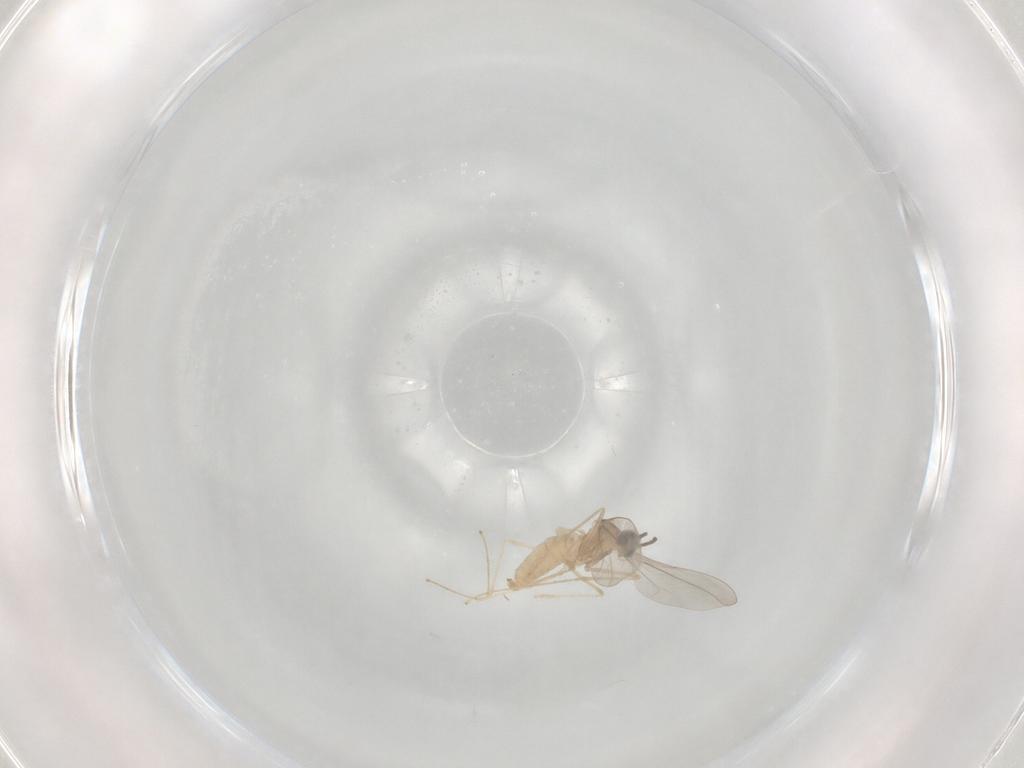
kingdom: Animalia
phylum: Arthropoda
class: Insecta
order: Diptera
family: Cecidomyiidae
